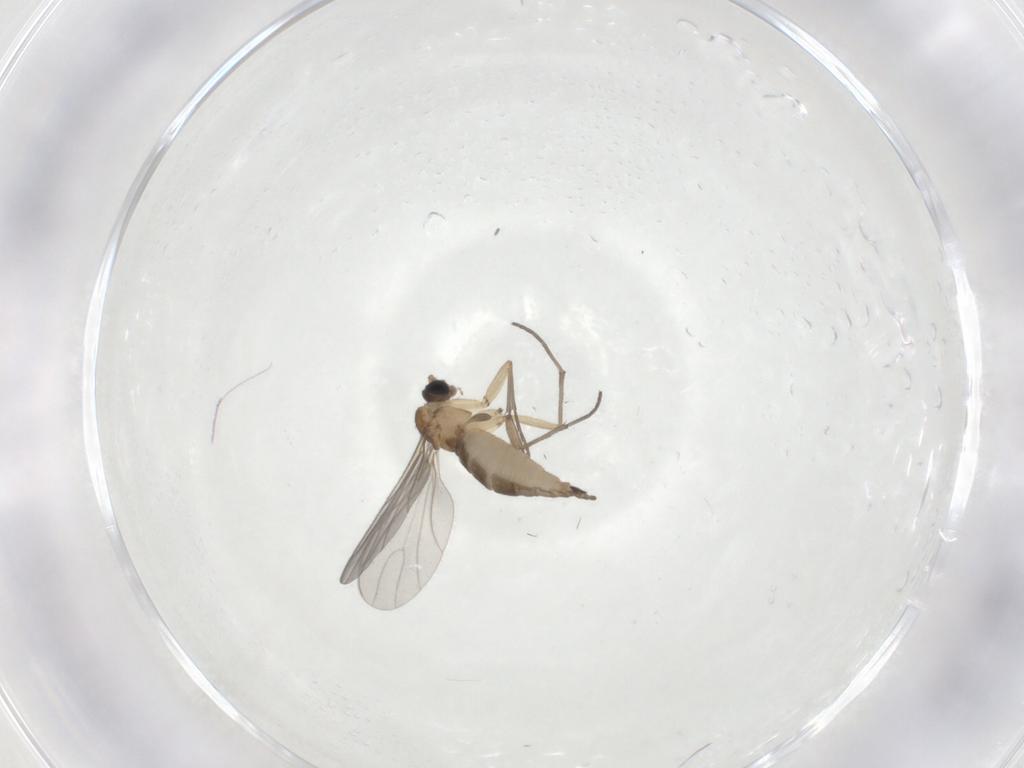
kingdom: Animalia
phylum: Arthropoda
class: Insecta
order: Diptera
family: Sciaridae
